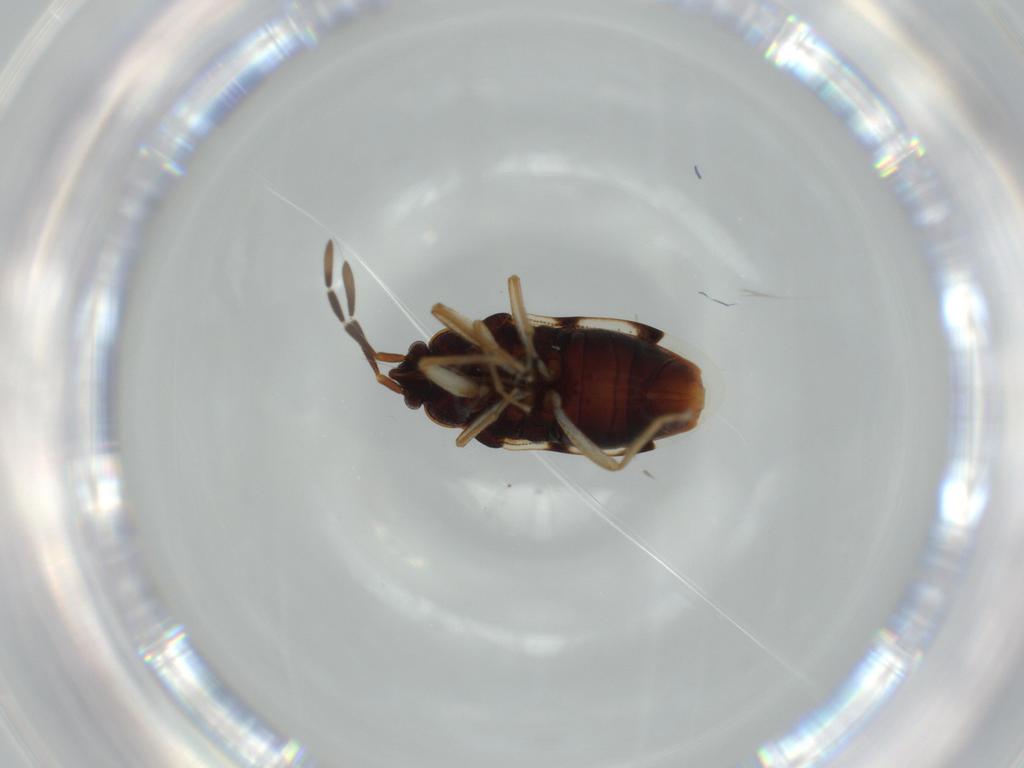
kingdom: Animalia
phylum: Arthropoda
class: Insecta
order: Hemiptera
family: Rhyparochromidae
